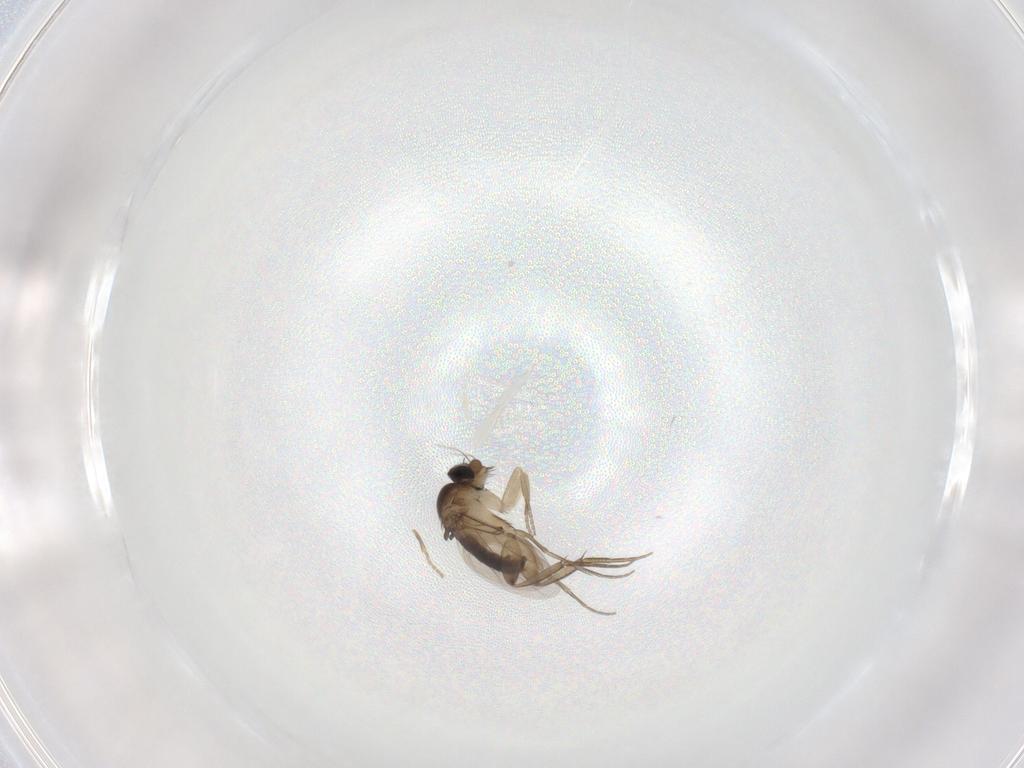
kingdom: Animalia
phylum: Arthropoda
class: Insecta
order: Diptera
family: Phoridae
